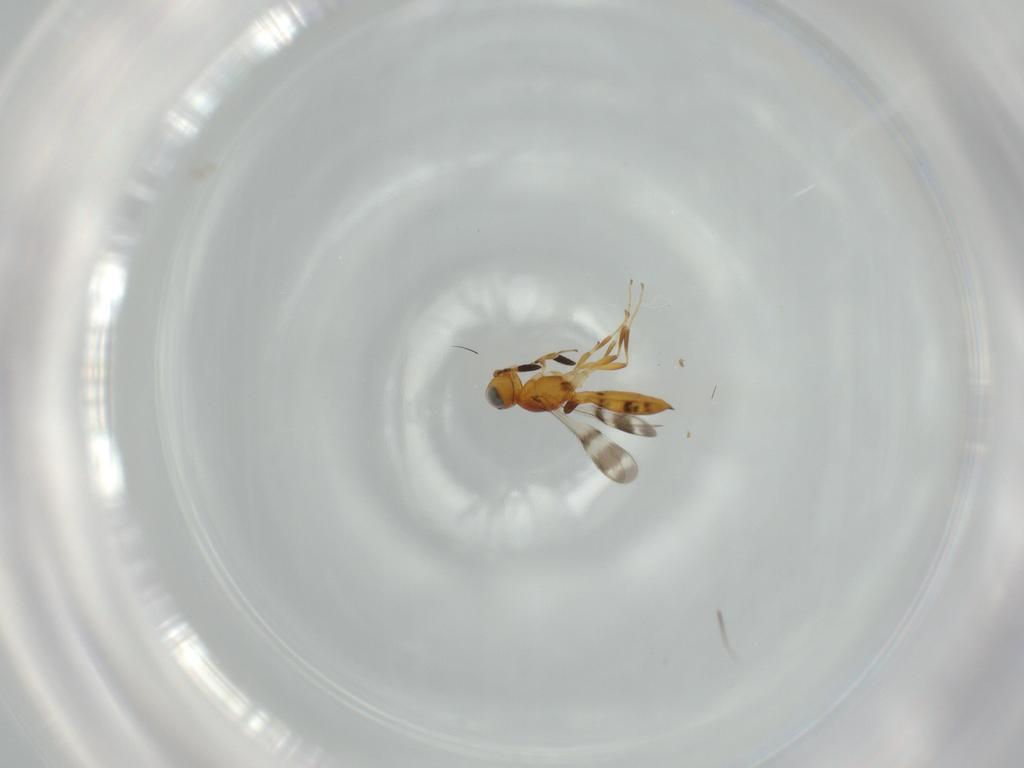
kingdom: Animalia
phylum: Arthropoda
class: Insecta
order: Hymenoptera
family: Scelionidae
